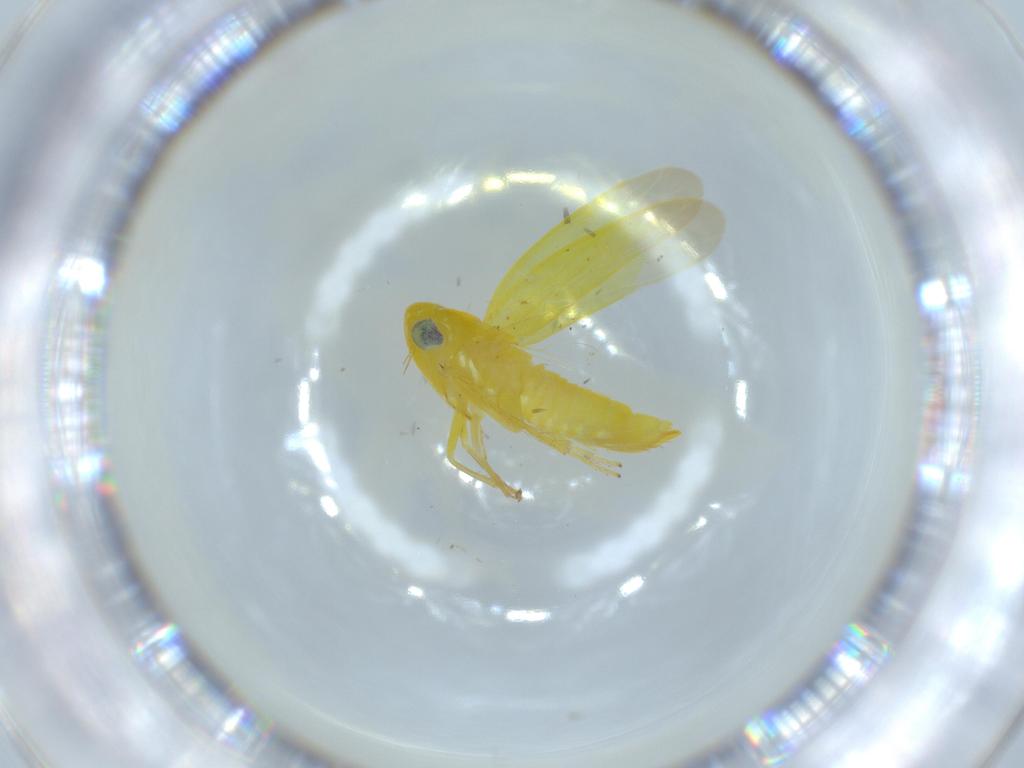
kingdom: Animalia
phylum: Arthropoda
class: Insecta
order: Hemiptera
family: Cicadellidae
